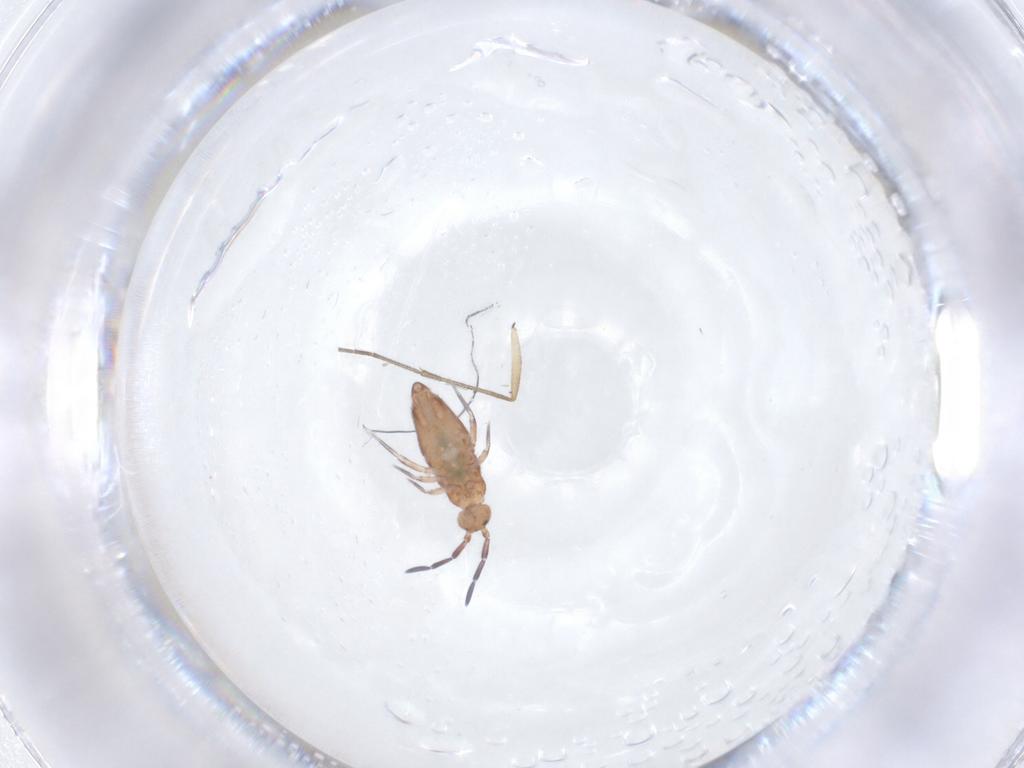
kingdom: Animalia
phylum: Arthropoda
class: Collembola
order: Entomobryomorpha
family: Entomobryidae
